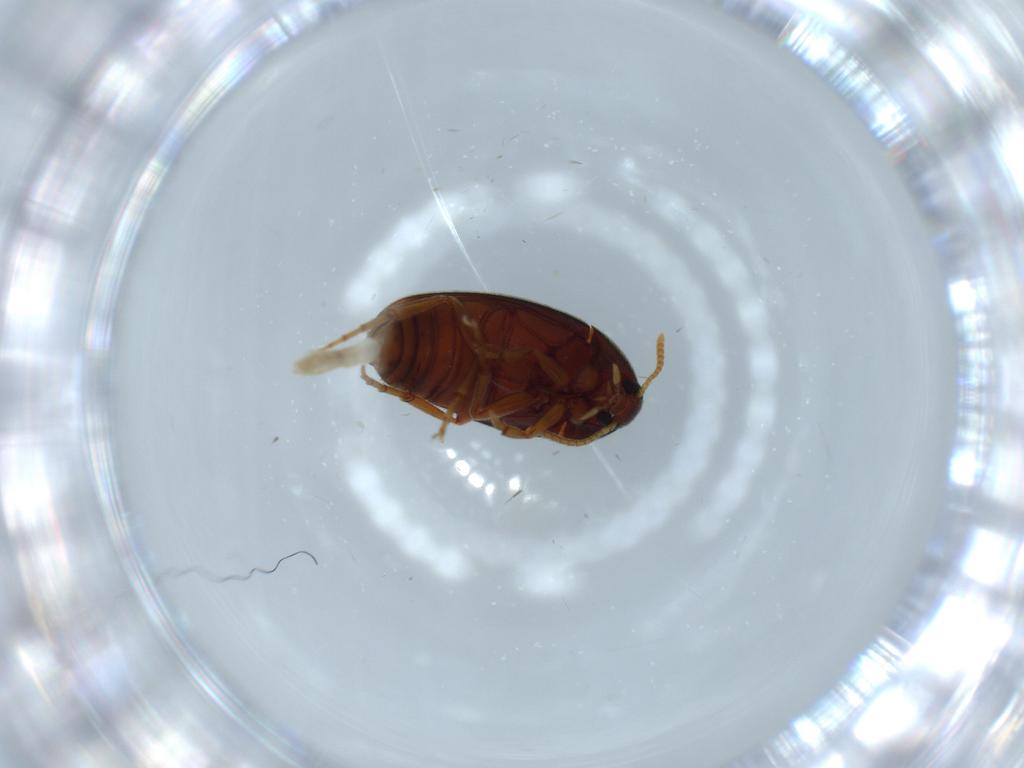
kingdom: Animalia
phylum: Arthropoda
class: Insecta
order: Coleoptera
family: Scraptiidae
